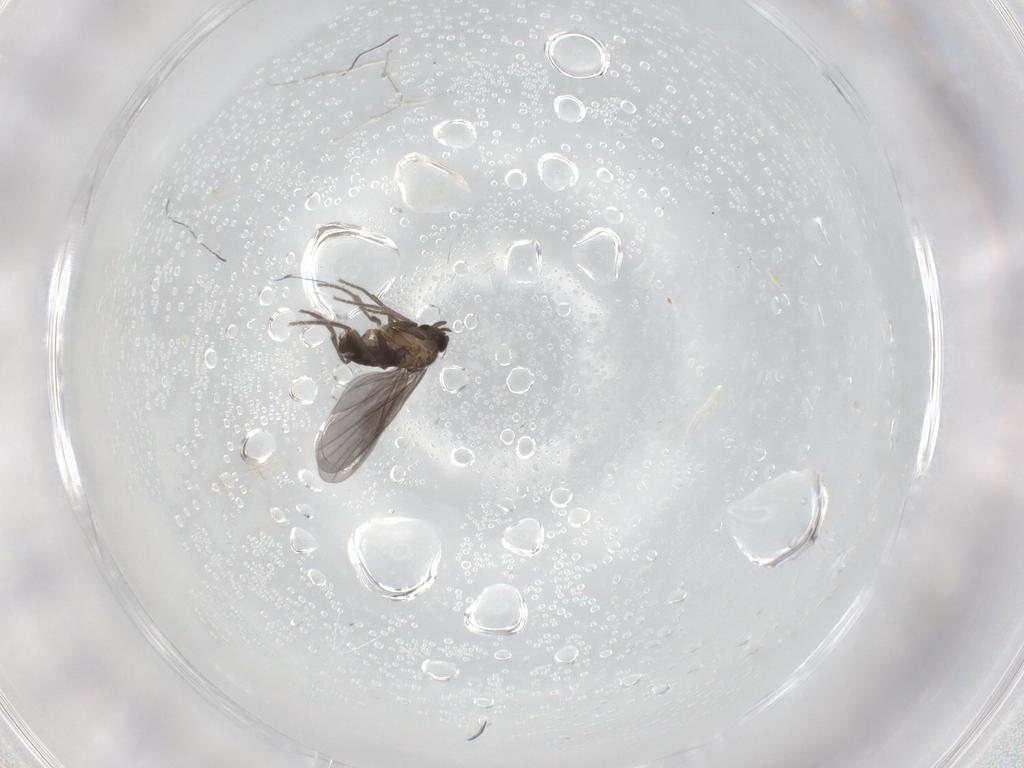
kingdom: Animalia
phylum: Arthropoda
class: Insecta
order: Diptera
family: Phoridae
